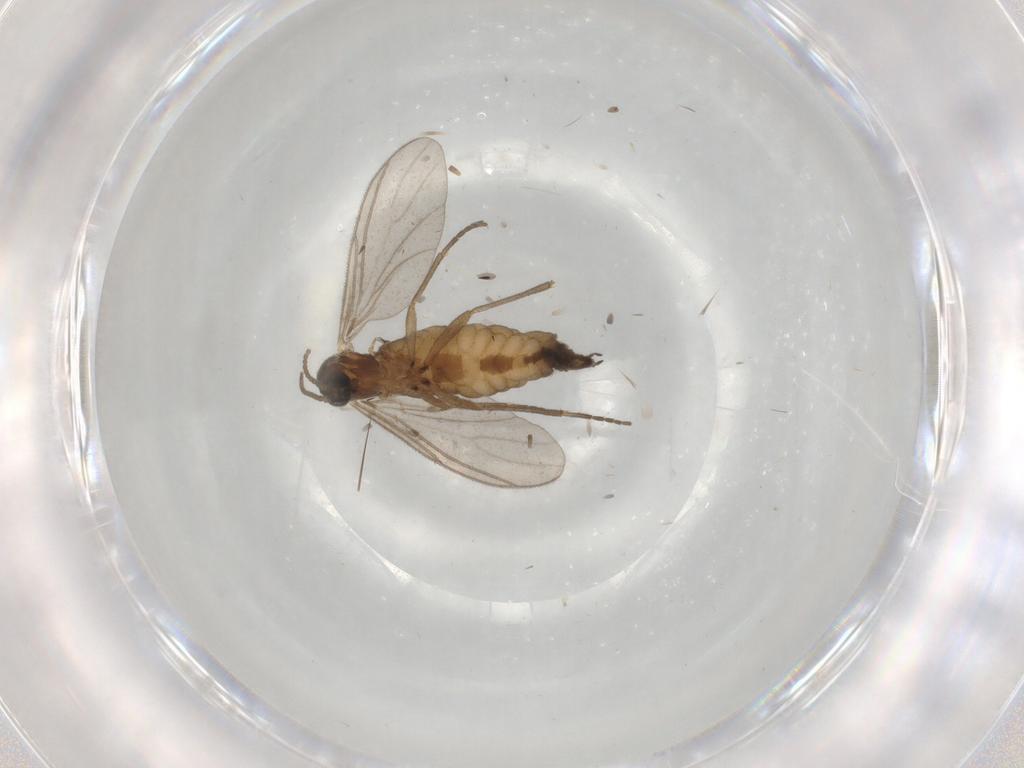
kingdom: Animalia
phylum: Arthropoda
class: Insecta
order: Diptera
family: Sciaridae
